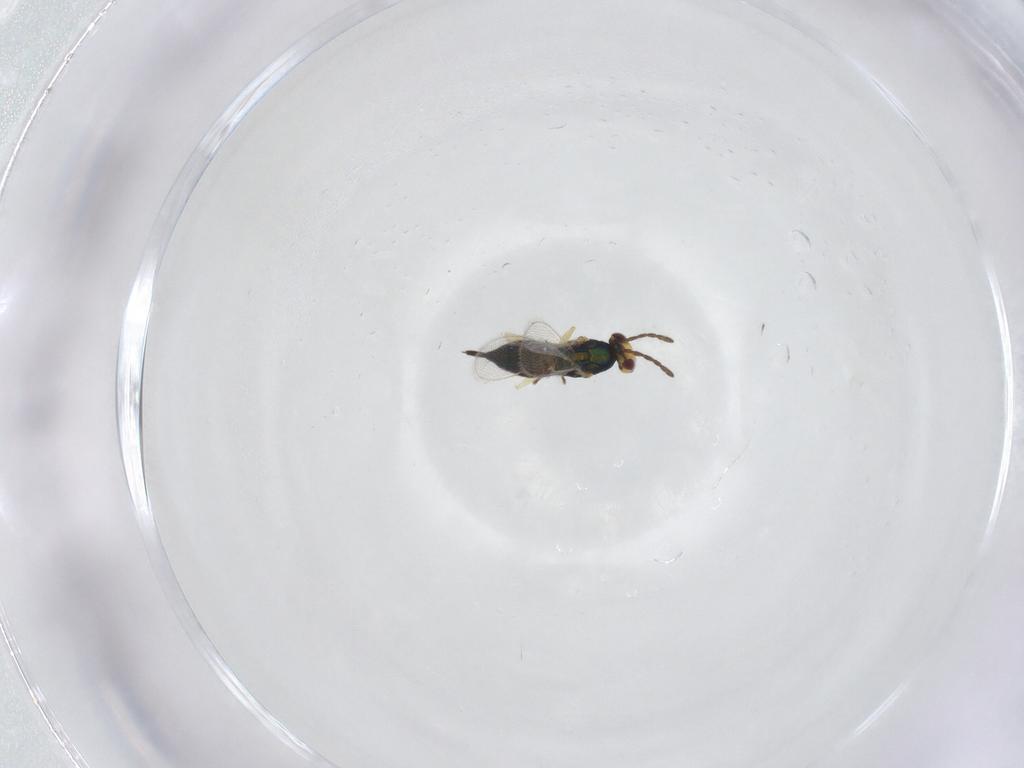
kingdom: Animalia
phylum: Arthropoda
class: Insecta
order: Hymenoptera
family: Eulophidae
